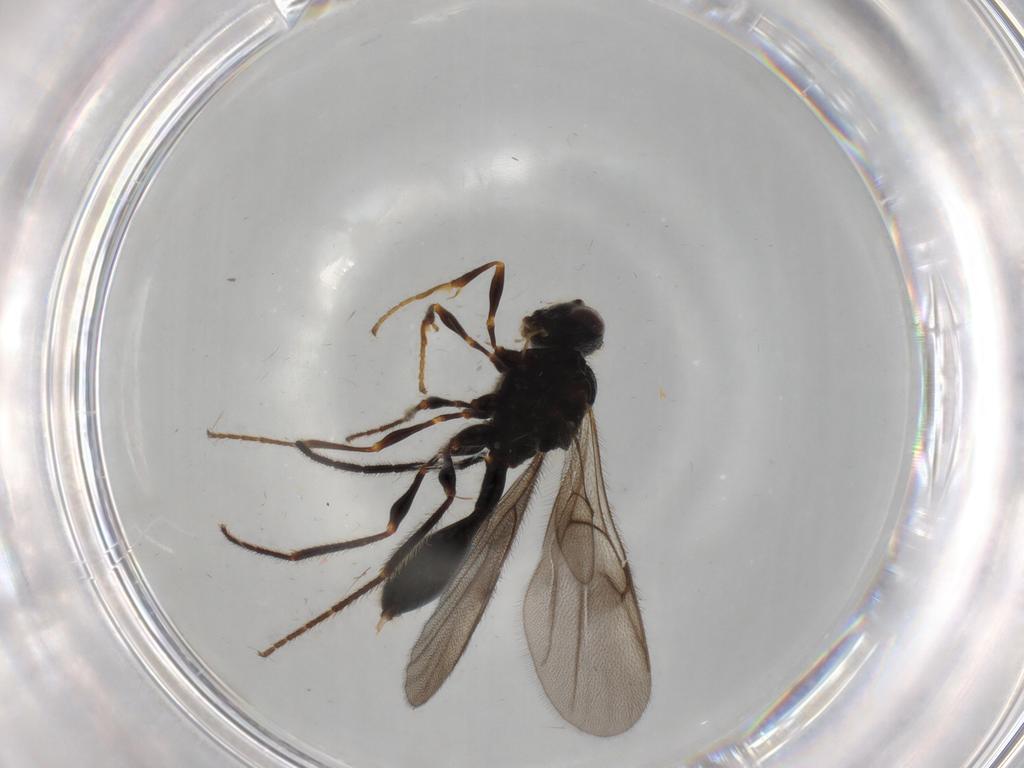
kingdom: Animalia
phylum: Arthropoda
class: Insecta
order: Hymenoptera
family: Diapriidae
